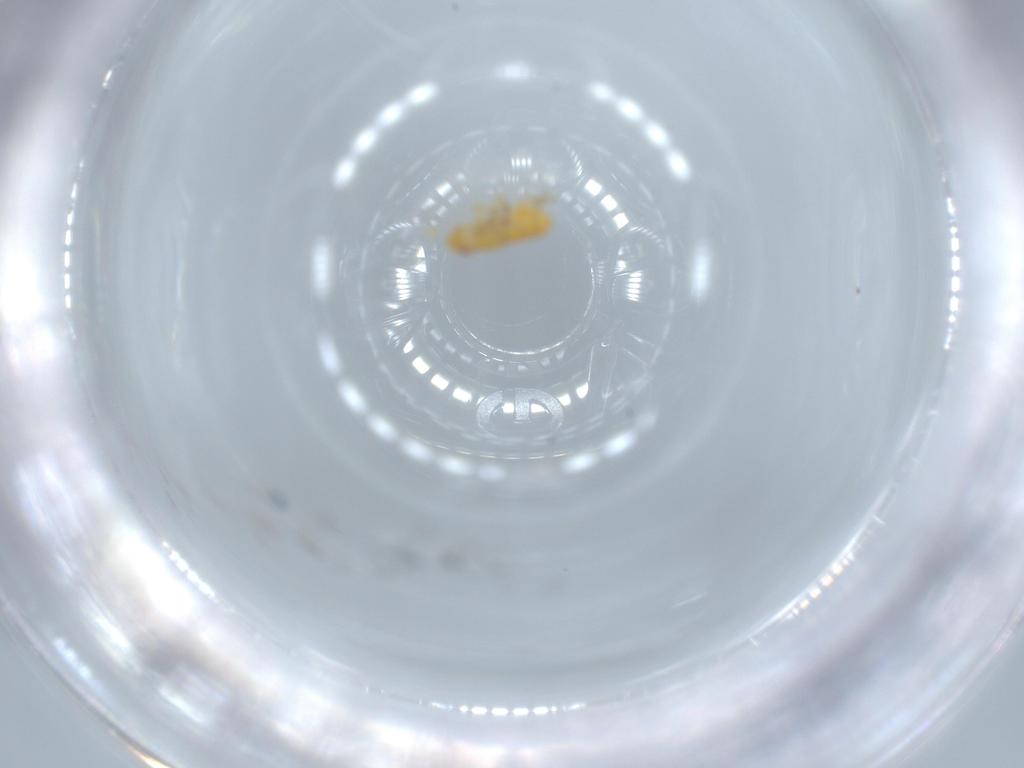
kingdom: Animalia
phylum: Arthropoda
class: Insecta
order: Hemiptera
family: Delphacidae
